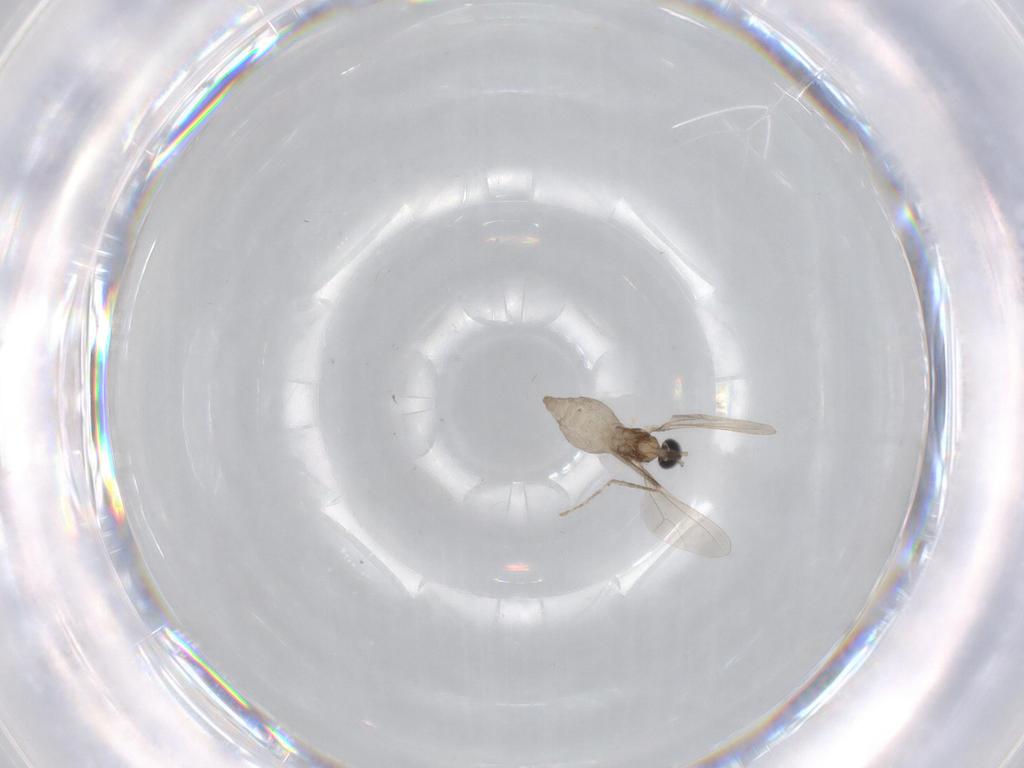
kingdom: Animalia
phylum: Arthropoda
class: Insecta
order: Diptera
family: Cecidomyiidae
